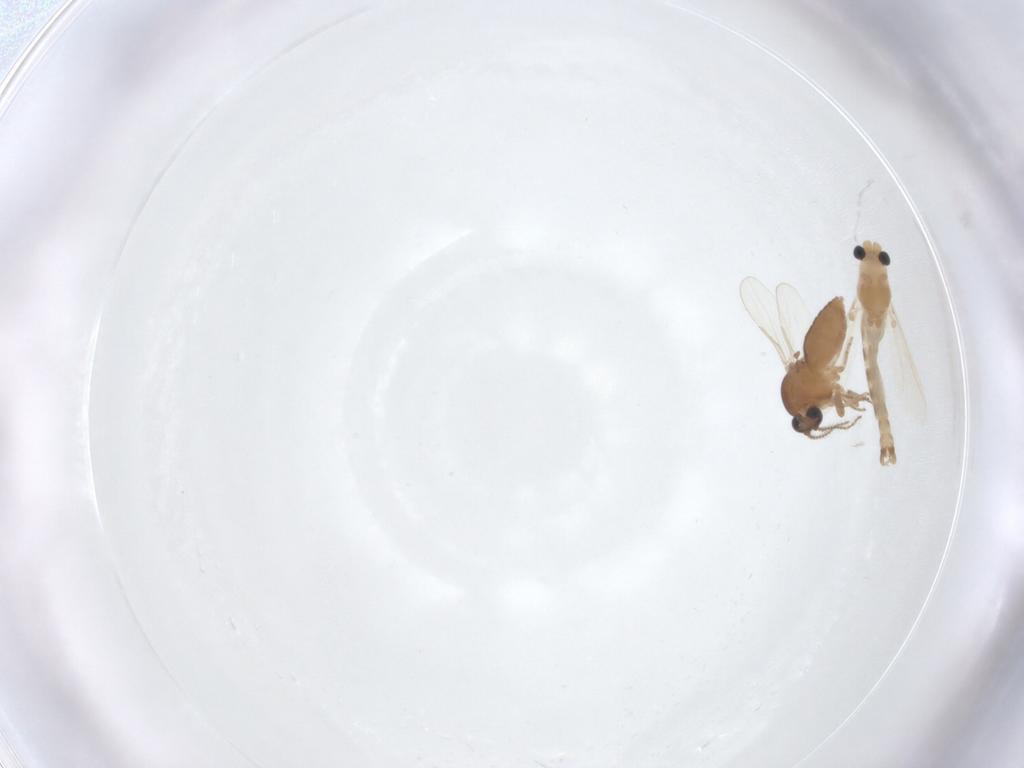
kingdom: Animalia
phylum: Arthropoda
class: Insecta
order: Diptera
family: Ceratopogonidae
